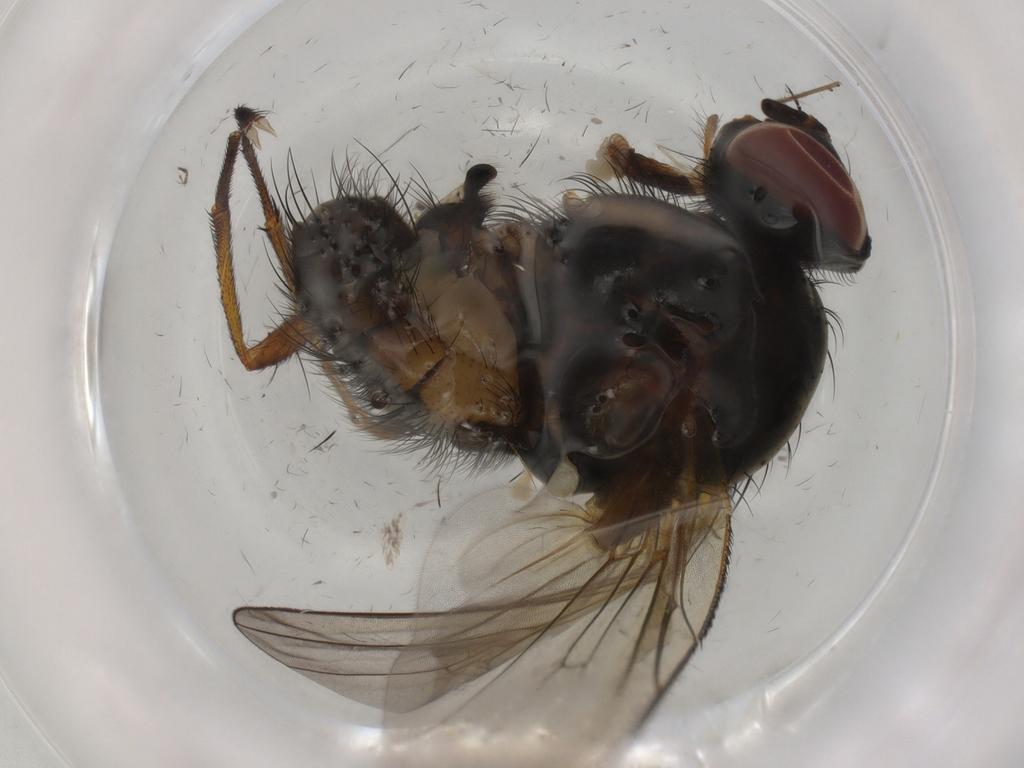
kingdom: Animalia
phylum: Arthropoda
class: Insecta
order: Diptera
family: Anthomyiidae
